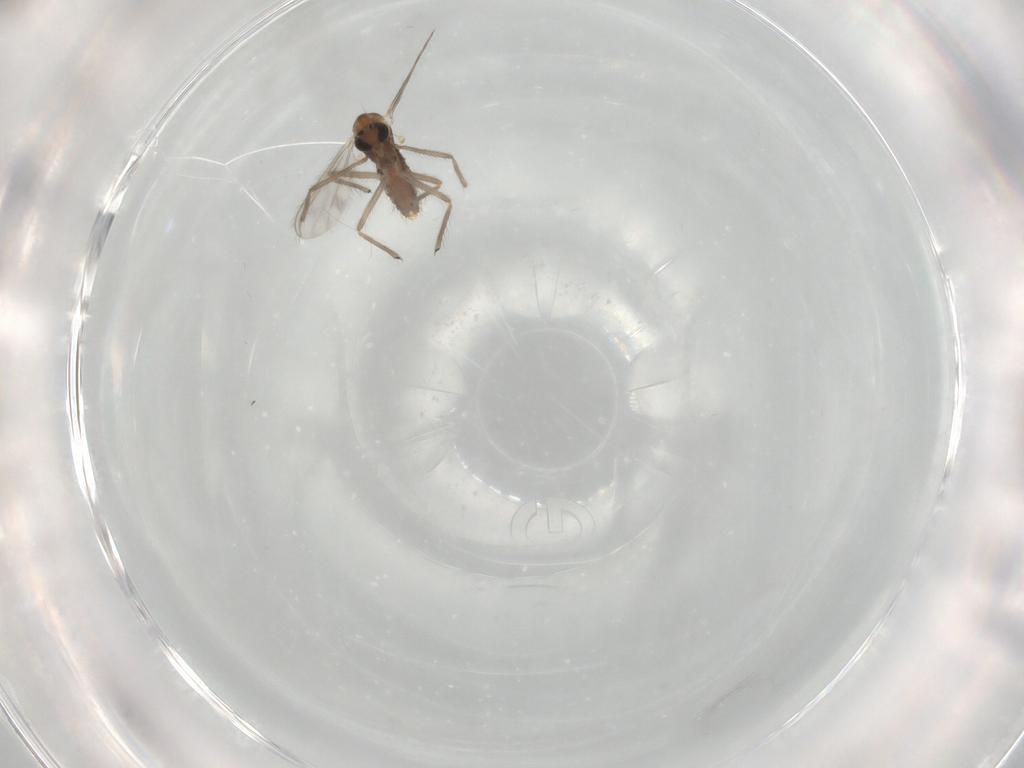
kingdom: Animalia
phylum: Arthropoda
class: Insecta
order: Diptera
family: Chironomidae
